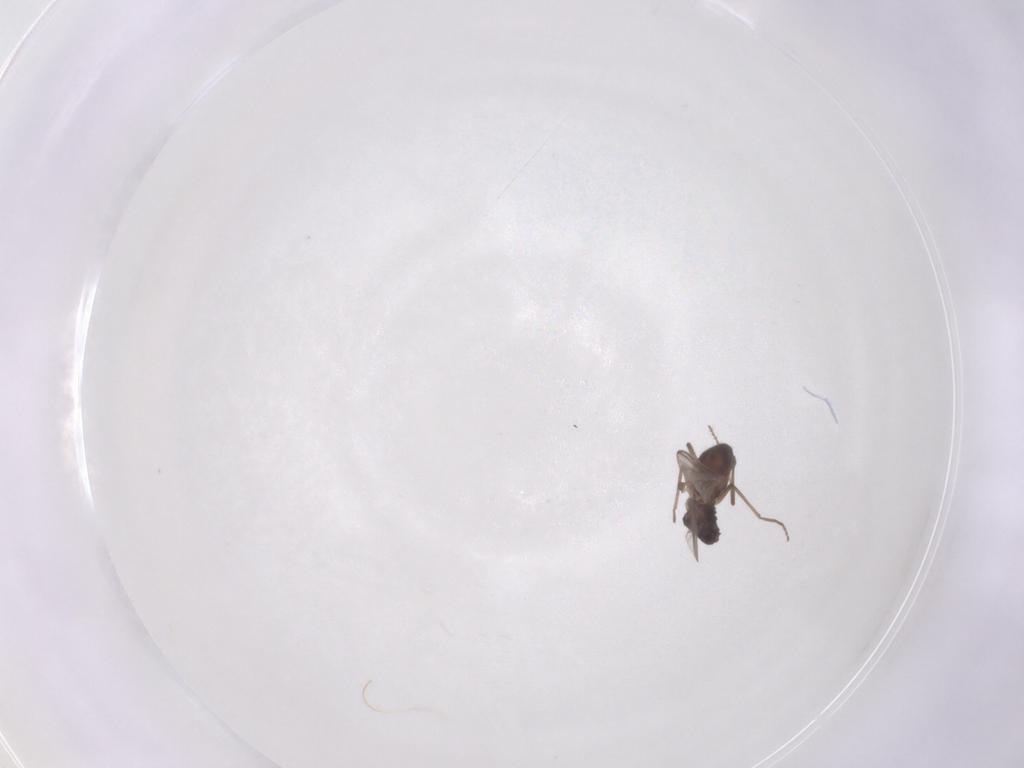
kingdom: Animalia
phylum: Arthropoda
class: Insecta
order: Diptera
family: Chironomidae
